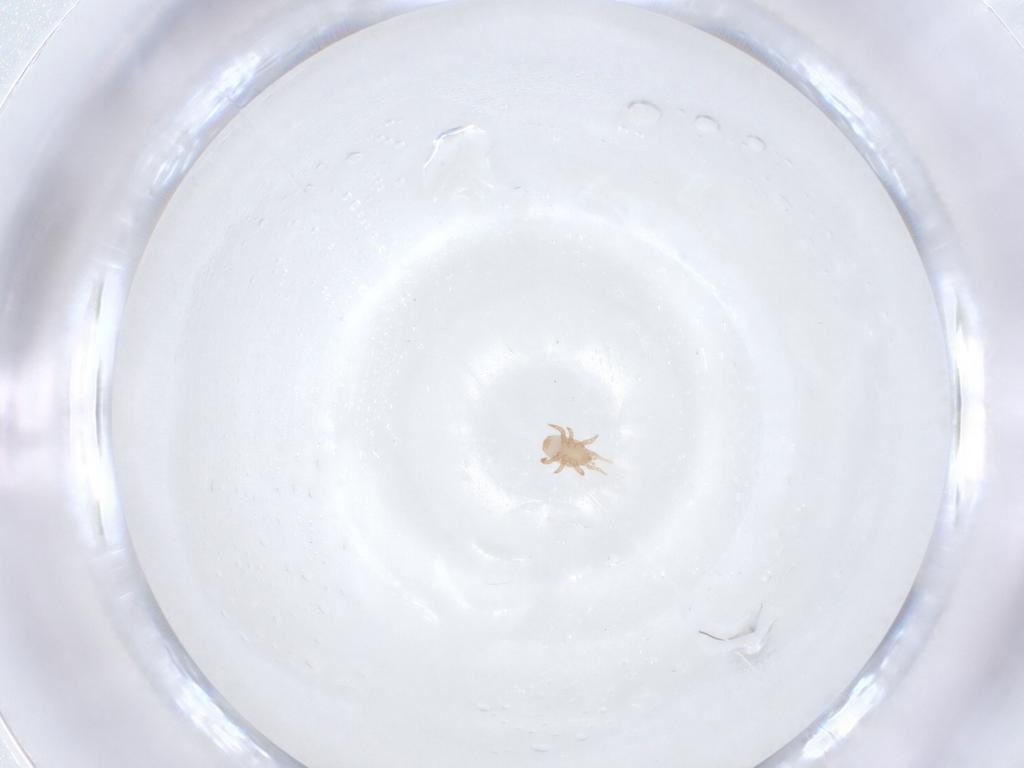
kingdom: Animalia
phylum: Arthropoda
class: Arachnida
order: Mesostigmata
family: Halolaelapidae
